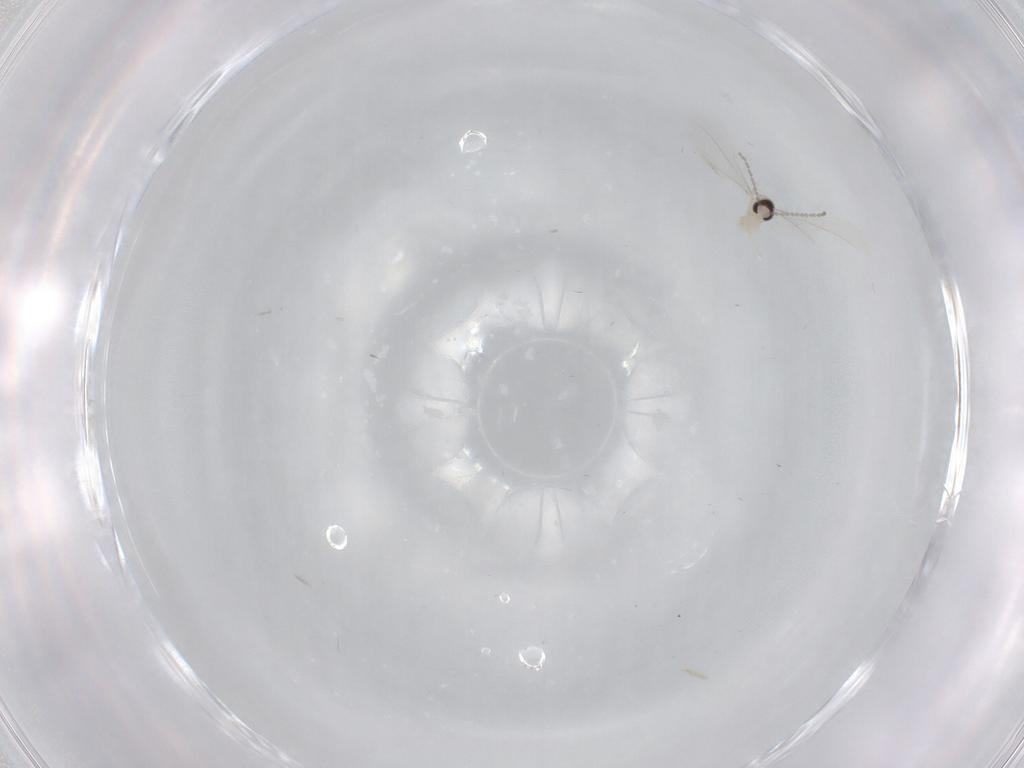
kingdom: Animalia
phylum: Arthropoda
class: Insecta
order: Diptera
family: Cecidomyiidae
